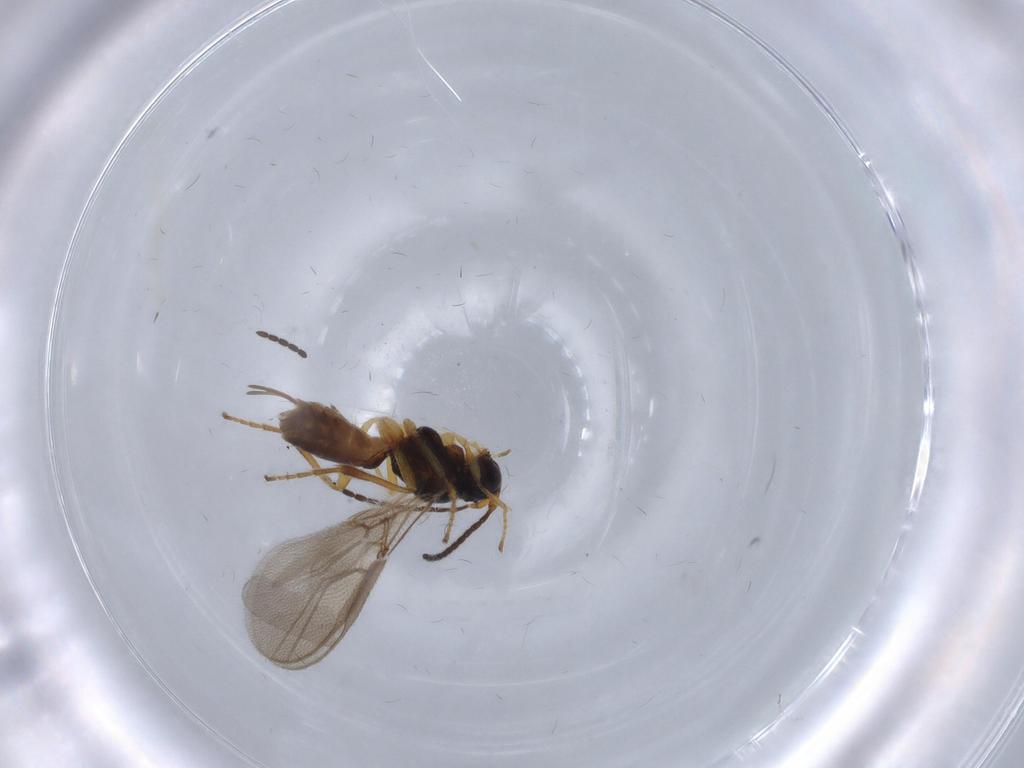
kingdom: Animalia
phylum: Arthropoda
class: Insecta
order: Hymenoptera
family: Braconidae
